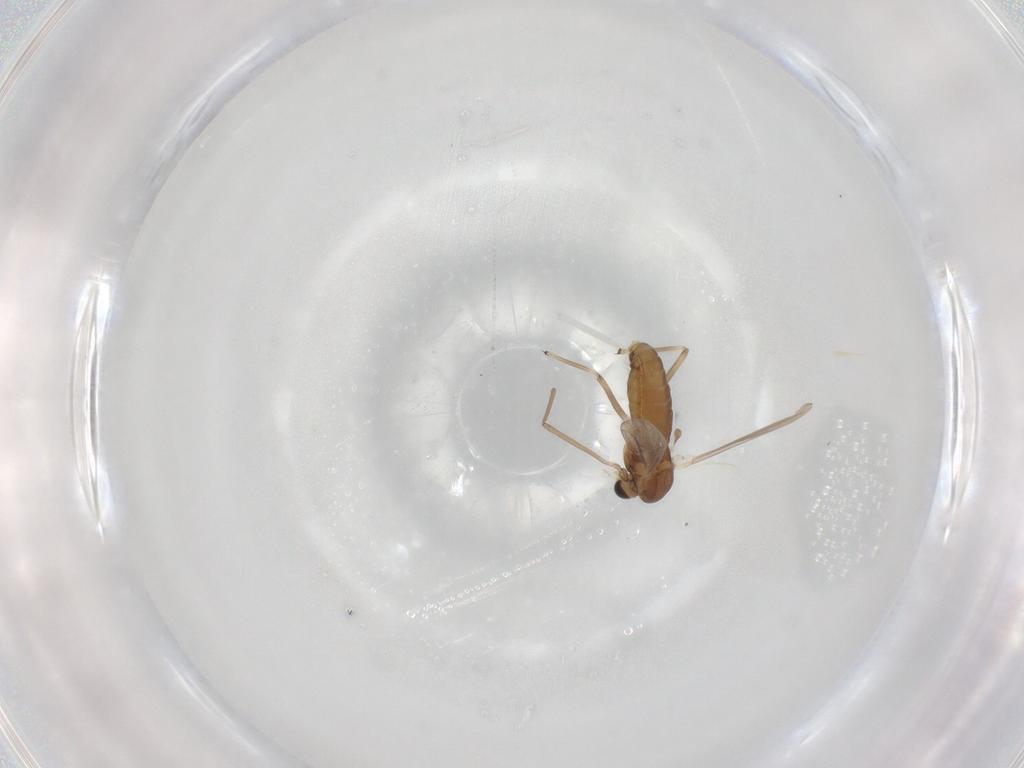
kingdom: Animalia
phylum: Arthropoda
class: Insecta
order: Diptera
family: Chironomidae
